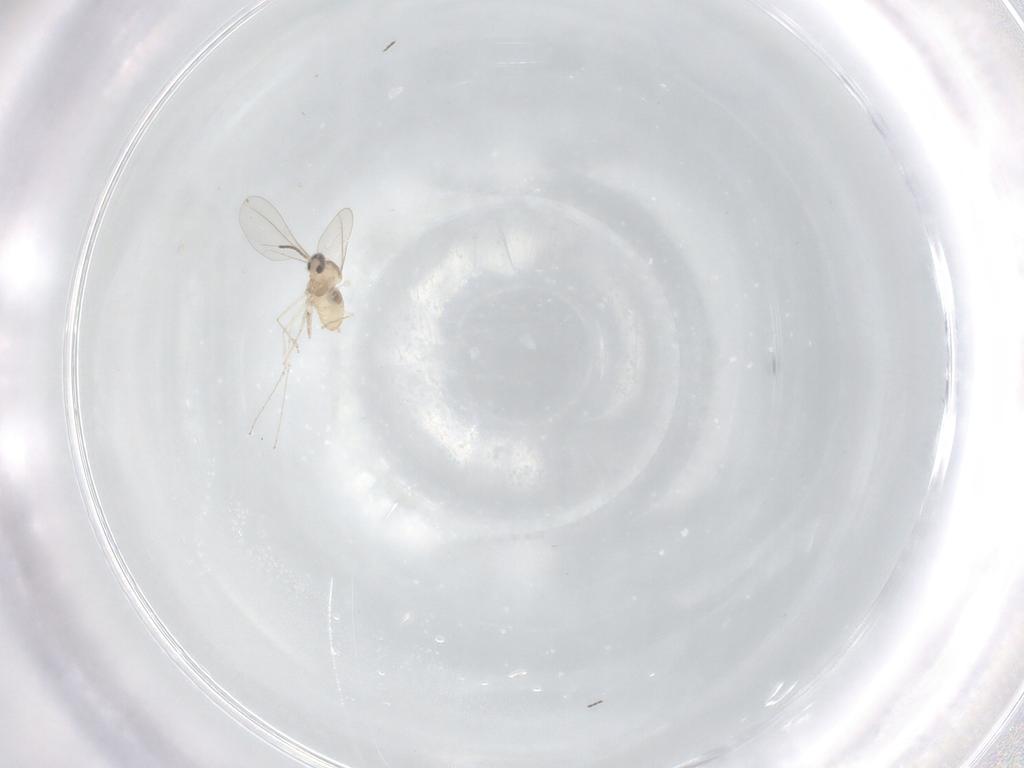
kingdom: Animalia
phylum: Arthropoda
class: Insecta
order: Diptera
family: Cecidomyiidae
